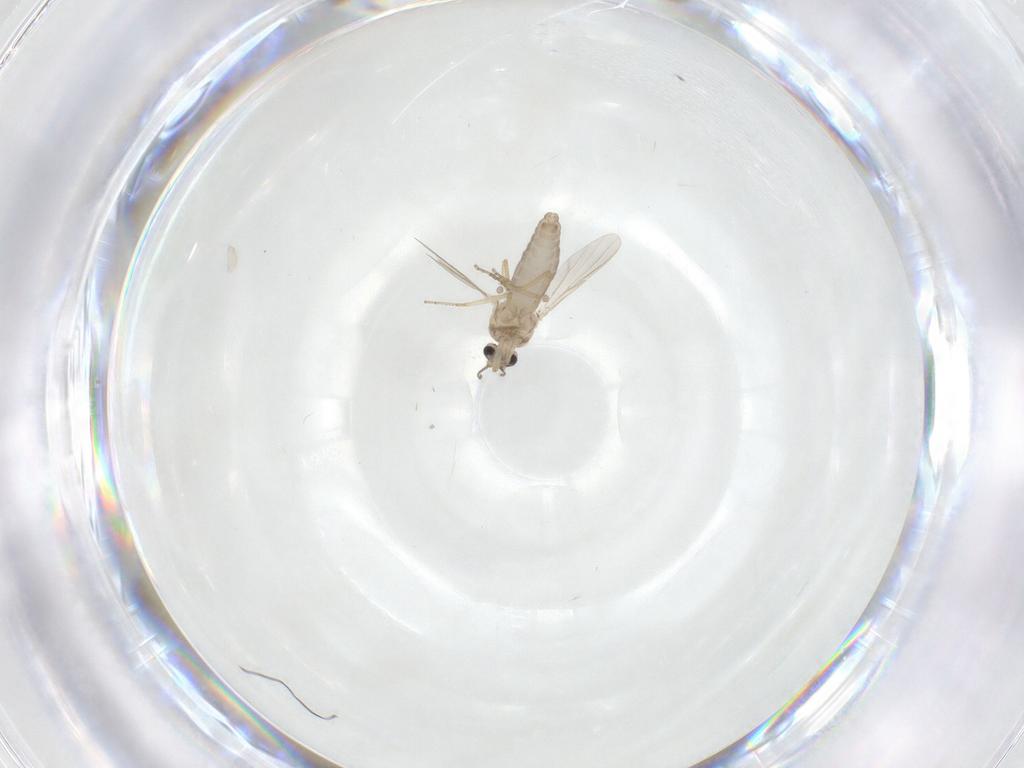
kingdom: Animalia
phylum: Arthropoda
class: Insecta
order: Diptera
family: Ceratopogonidae
